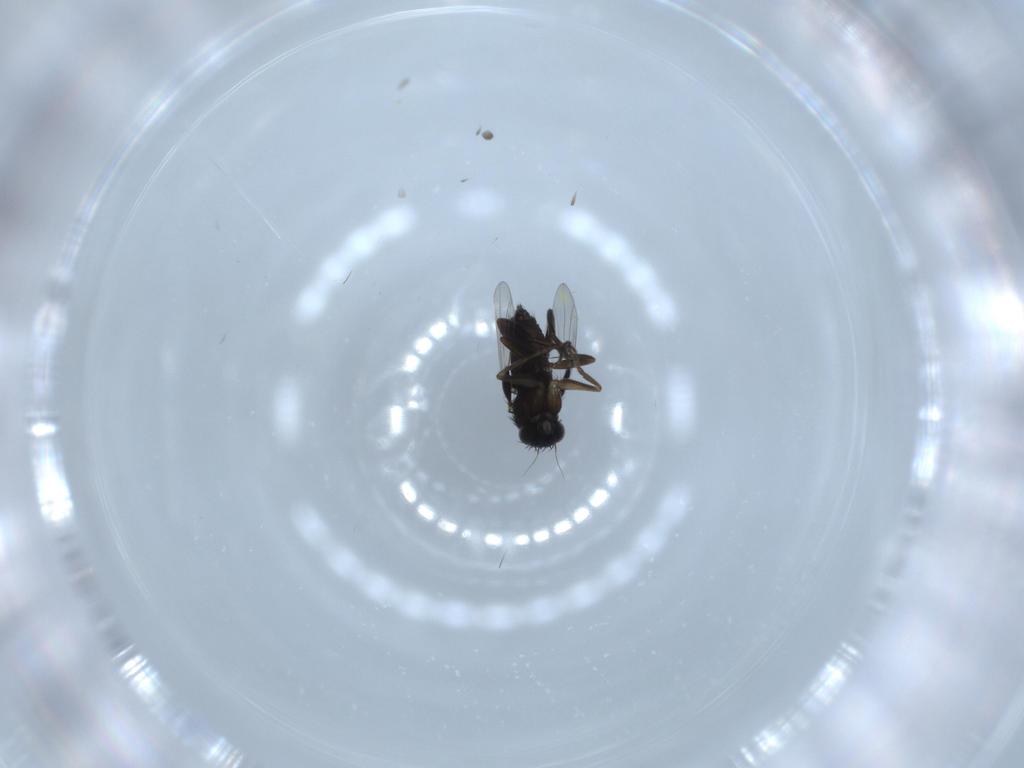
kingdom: Animalia
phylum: Arthropoda
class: Insecta
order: Diptera
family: Phoridae
